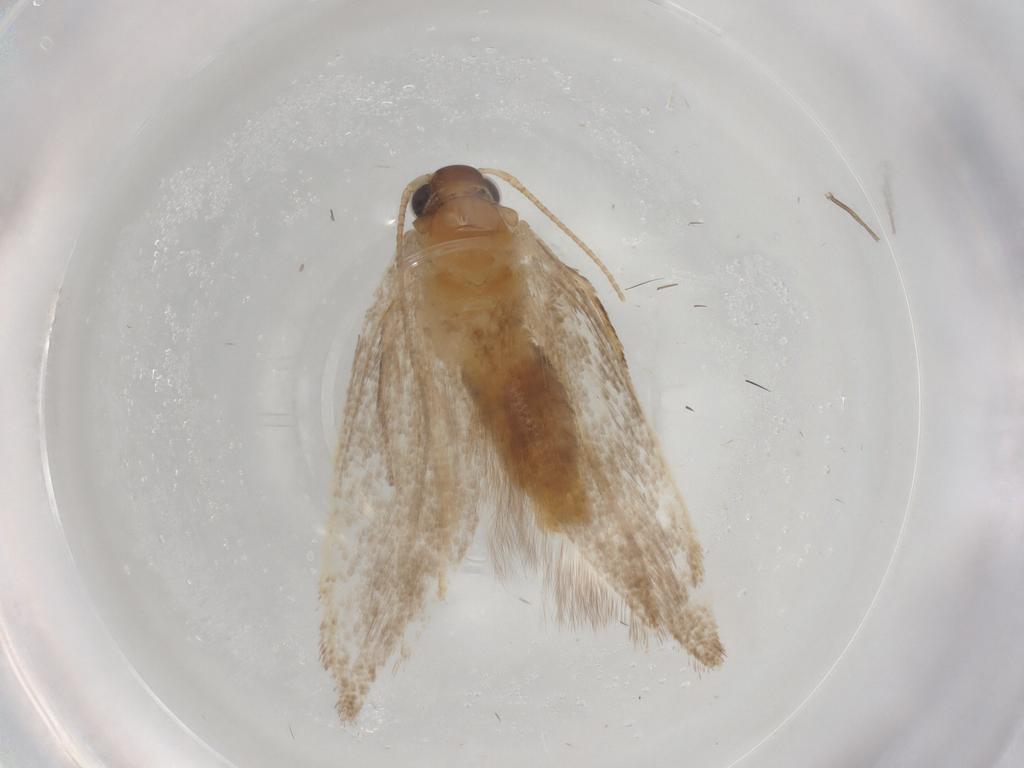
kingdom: Animalia
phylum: Arthropoda
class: Insecta
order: Lepidoptera
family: Oecophoridae
